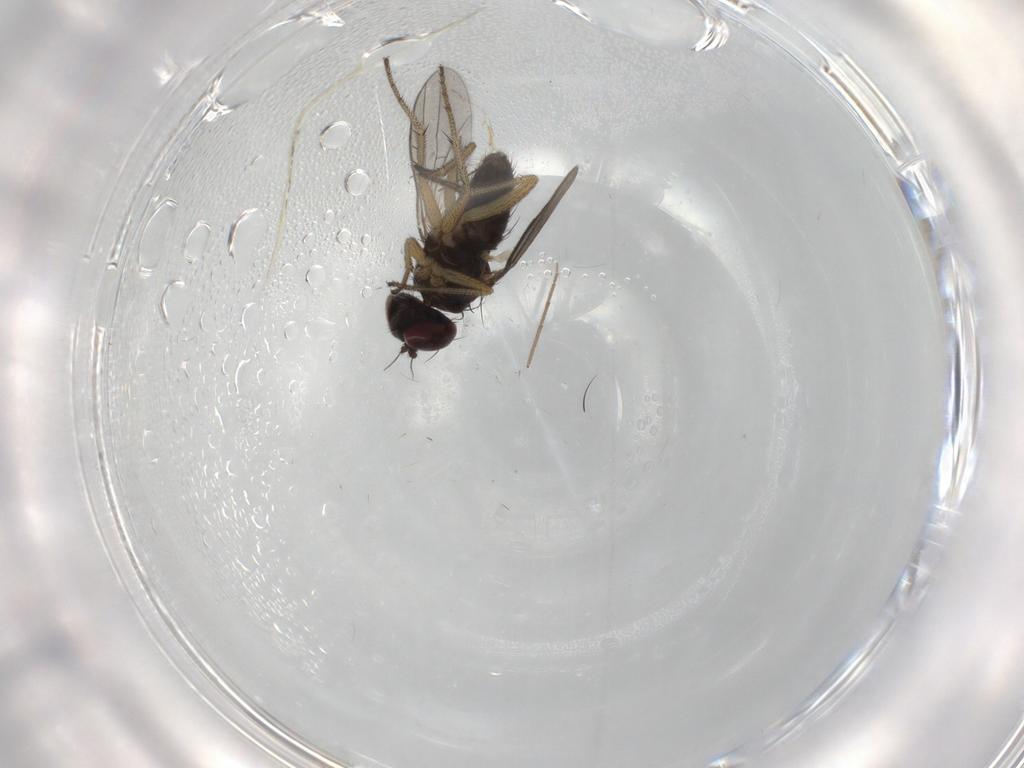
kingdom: Animalia
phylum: Arthropoda
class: Insecta
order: Diptera
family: Chironomidae
